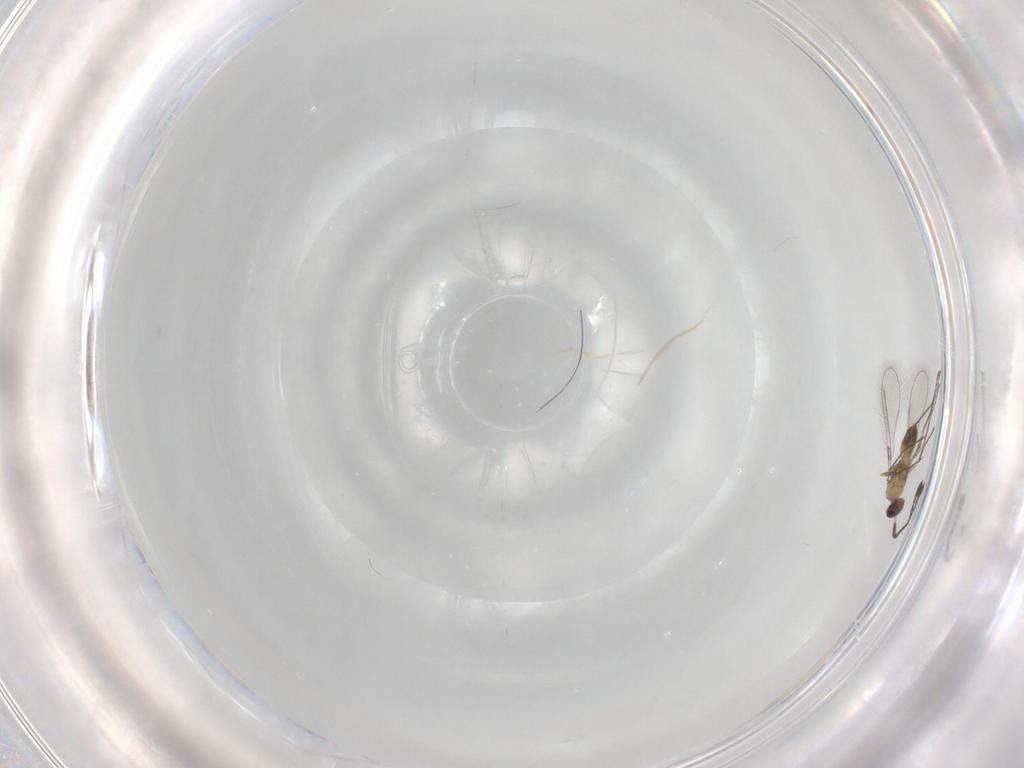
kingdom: Animalia
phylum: Arthropoda
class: Insecta
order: Hymenoptera
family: Mymaridae
